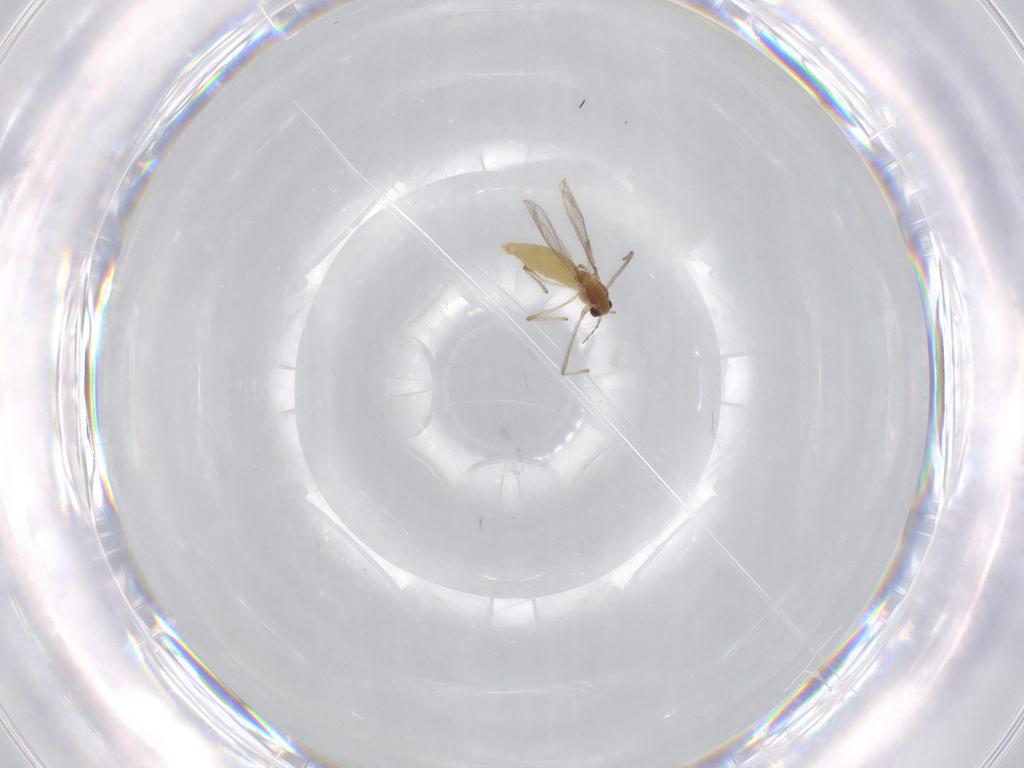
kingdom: Animalia
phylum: Arthropoda
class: Insecta
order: Diptera
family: Chironomidae
